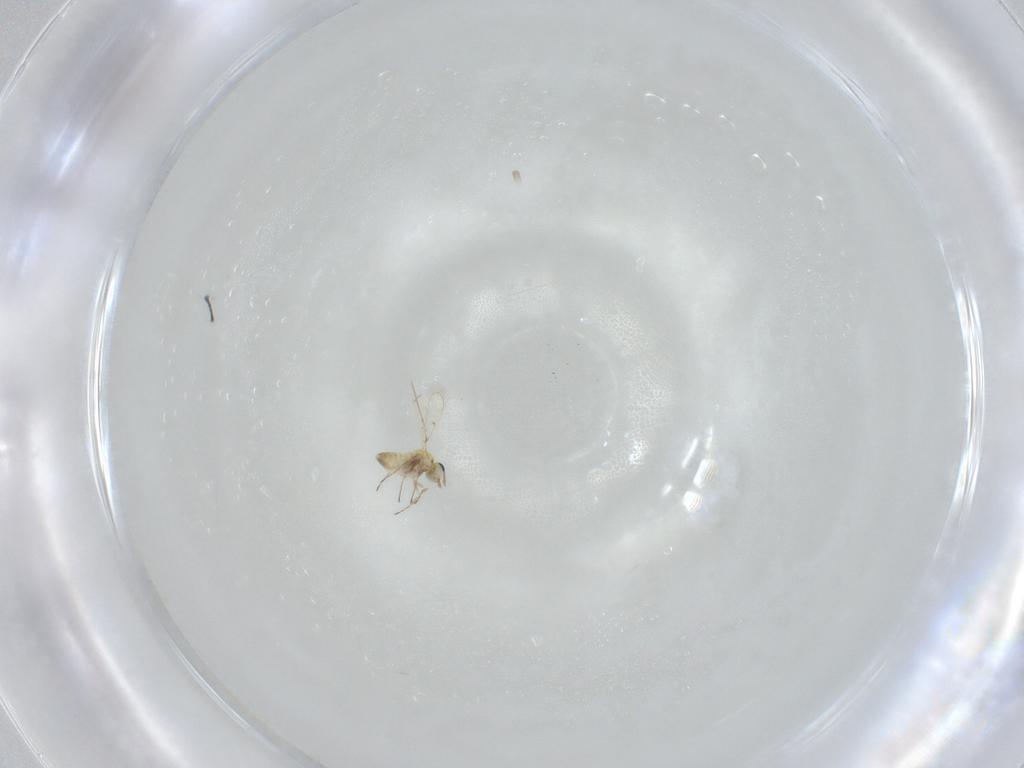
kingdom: Animalia
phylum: Arthropoda
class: Insecta
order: Hymenoptera
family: Trichogrammatidae
